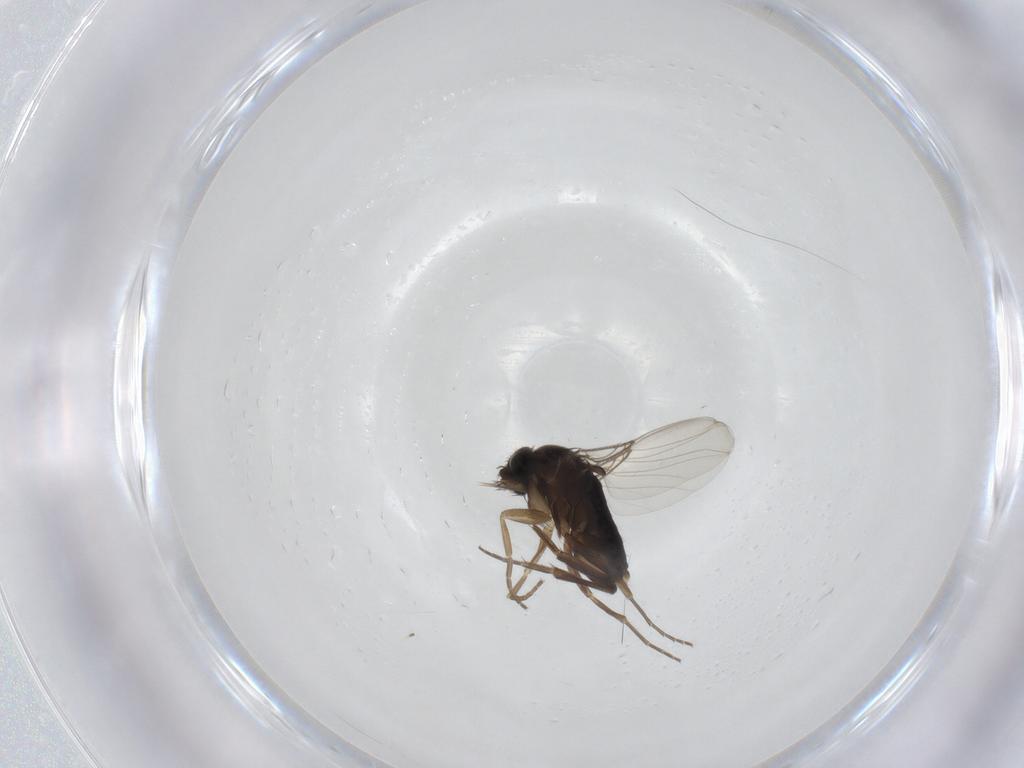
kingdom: Animalia
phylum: Arthropoda
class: Insecta
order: Diptera
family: Phoridae
